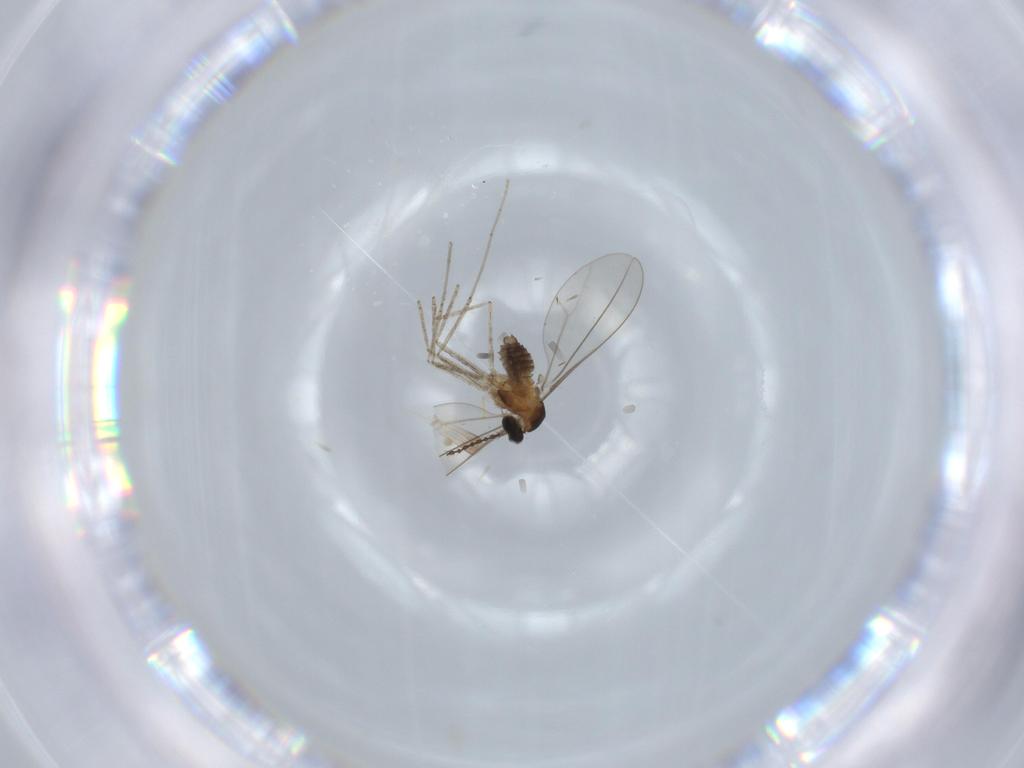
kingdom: Animalia
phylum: Arthropoda
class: Insecta
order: Diptera
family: Cecidomyiidae
